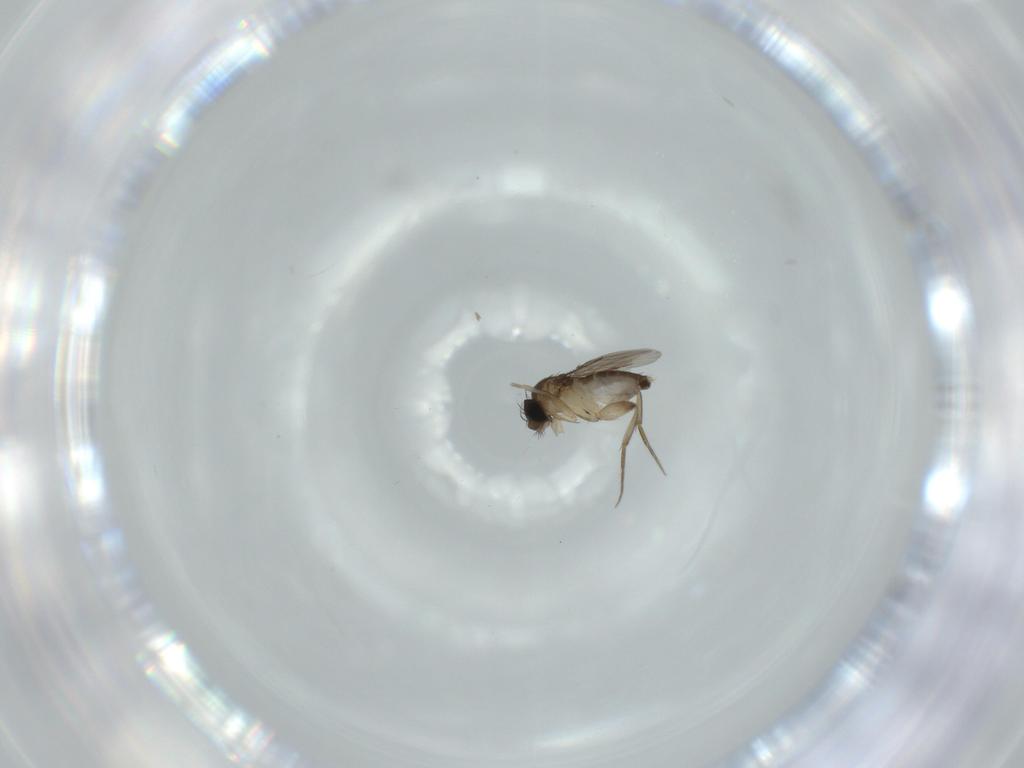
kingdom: Animalia
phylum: Arthropoda
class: Insecta
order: Diptera
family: Phoridae
